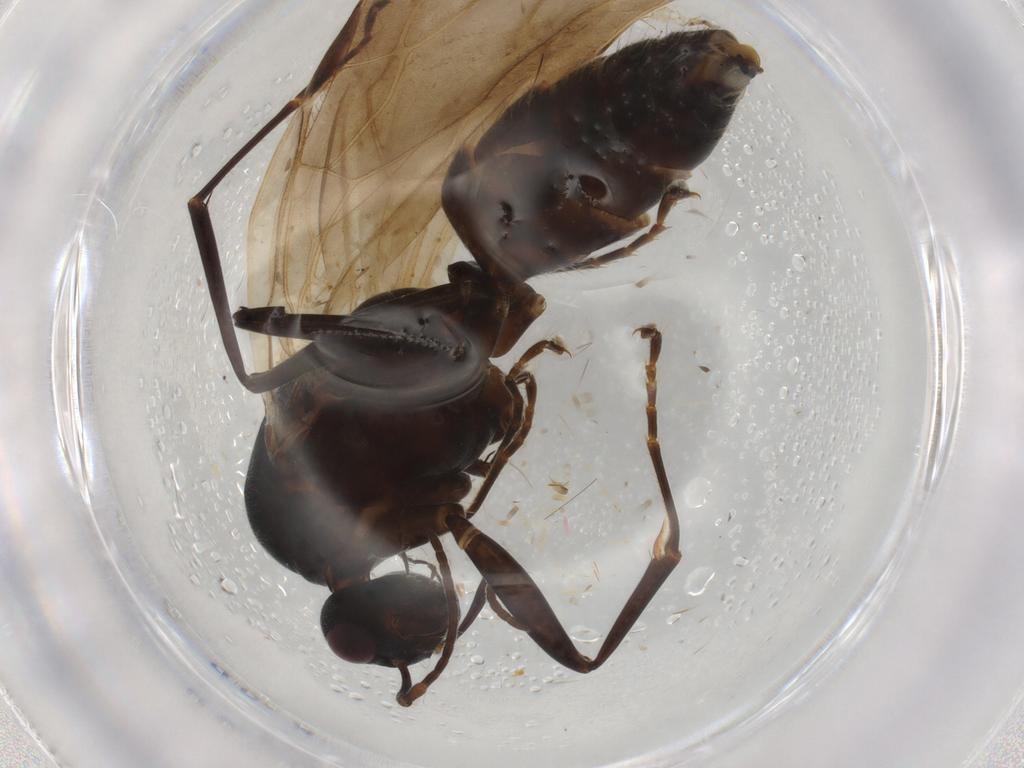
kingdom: Animalia
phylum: Arthropoda
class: Insecta
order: Hymenoptera
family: Formicidae
